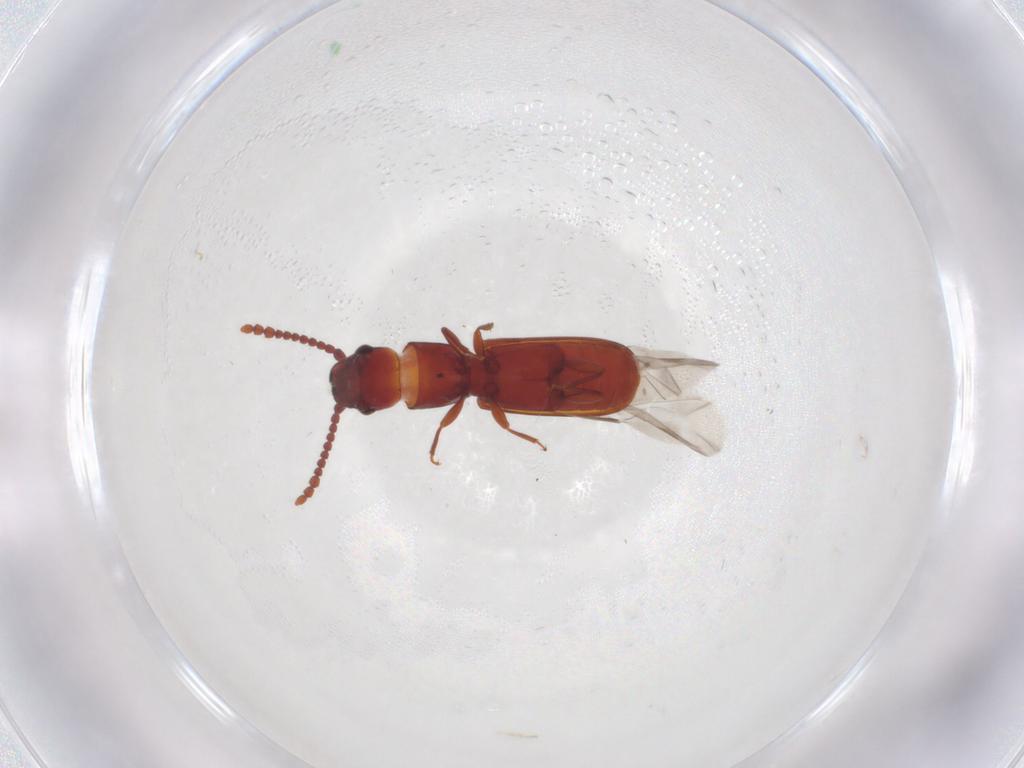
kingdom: Animalia
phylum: Arthropoda
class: Insecta
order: Coleoptera
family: Laemophloeidae
